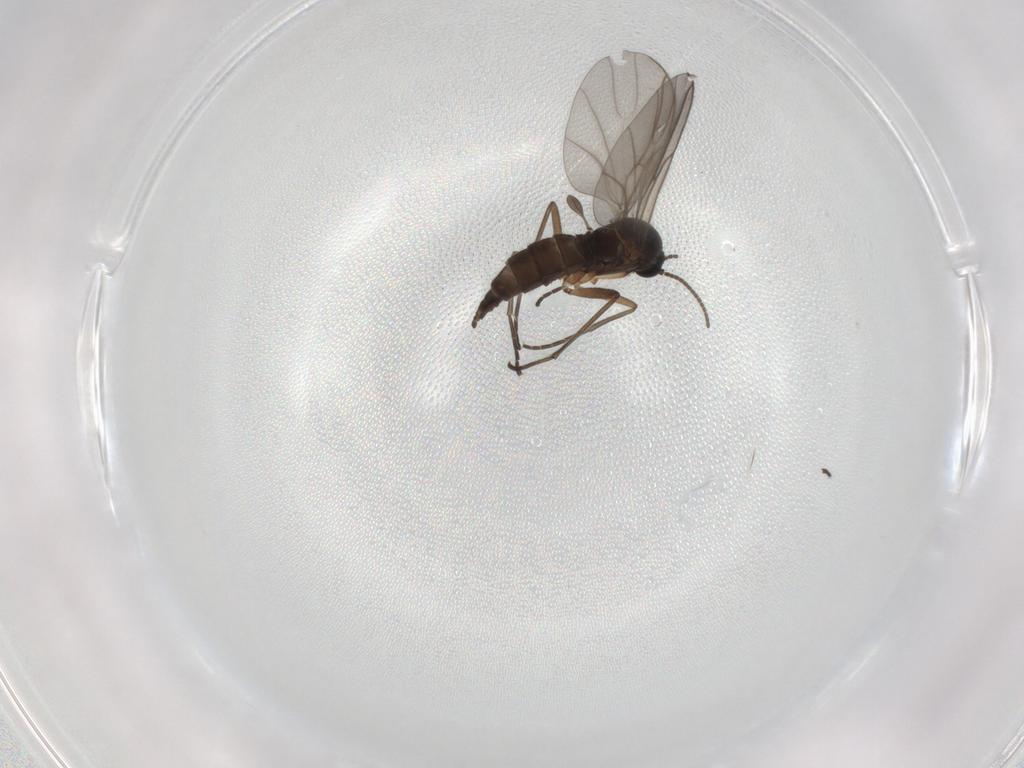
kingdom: Animalia
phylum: Arthropoda
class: Insecta
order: Diptera
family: Sciaridae
